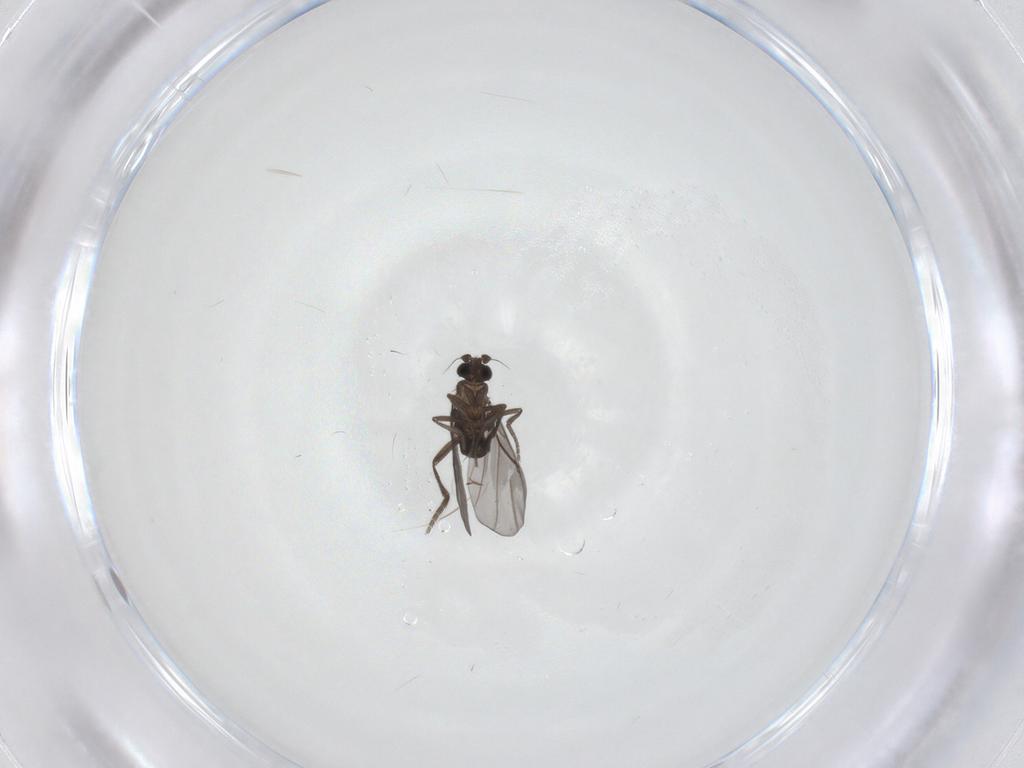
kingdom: Animalia
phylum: Arthropoda
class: Insecta
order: Diptera
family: Phoridae
